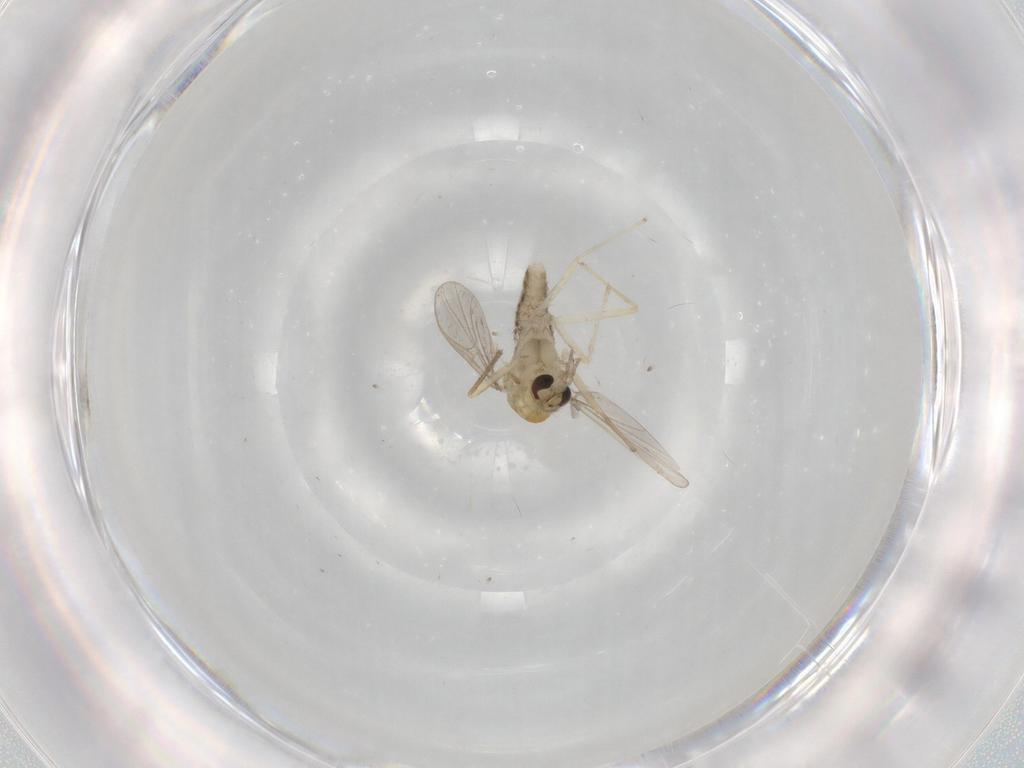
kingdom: Animalia
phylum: Arthropoda
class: Insecta
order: Diptera
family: Chironomidae
